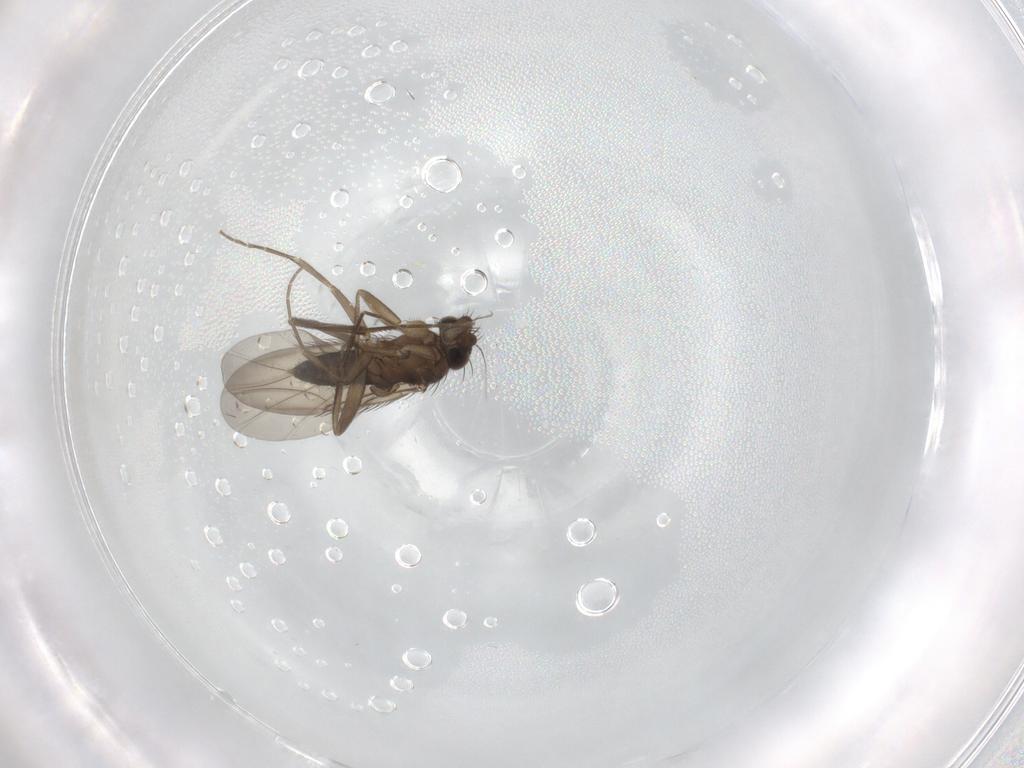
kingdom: Animalia
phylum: Arthropoda
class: Insecta
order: Diptera
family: Phoridae
